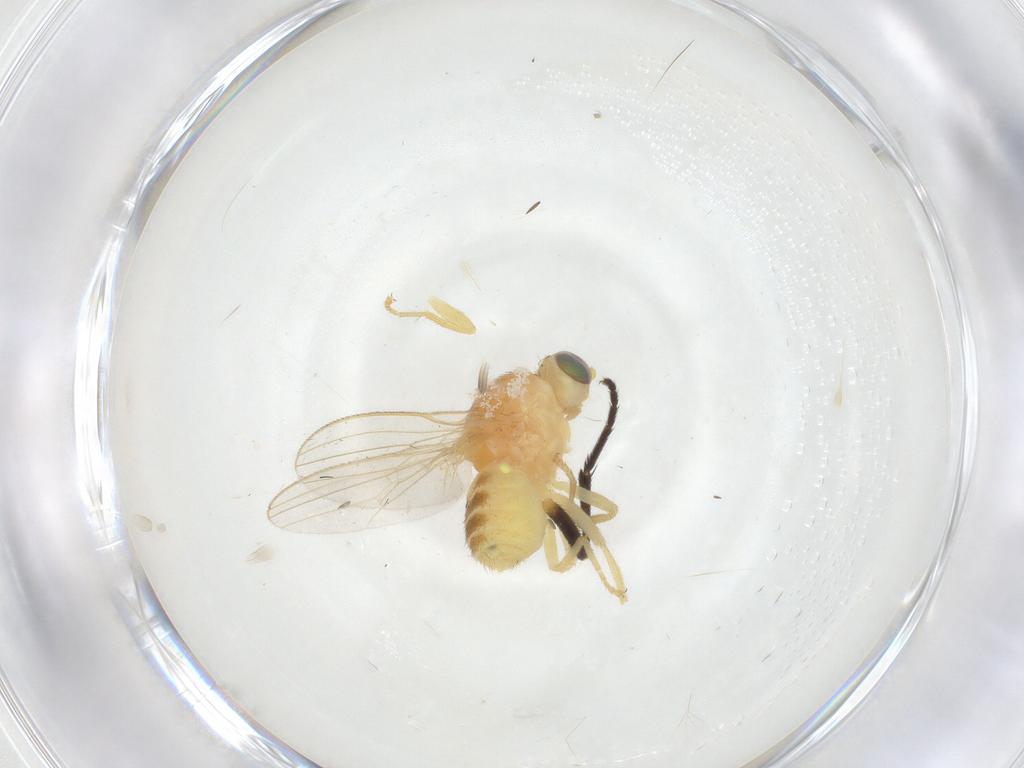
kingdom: Animalia
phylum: Arthropoda
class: Insecta
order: Diptera
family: Chyromyidae
